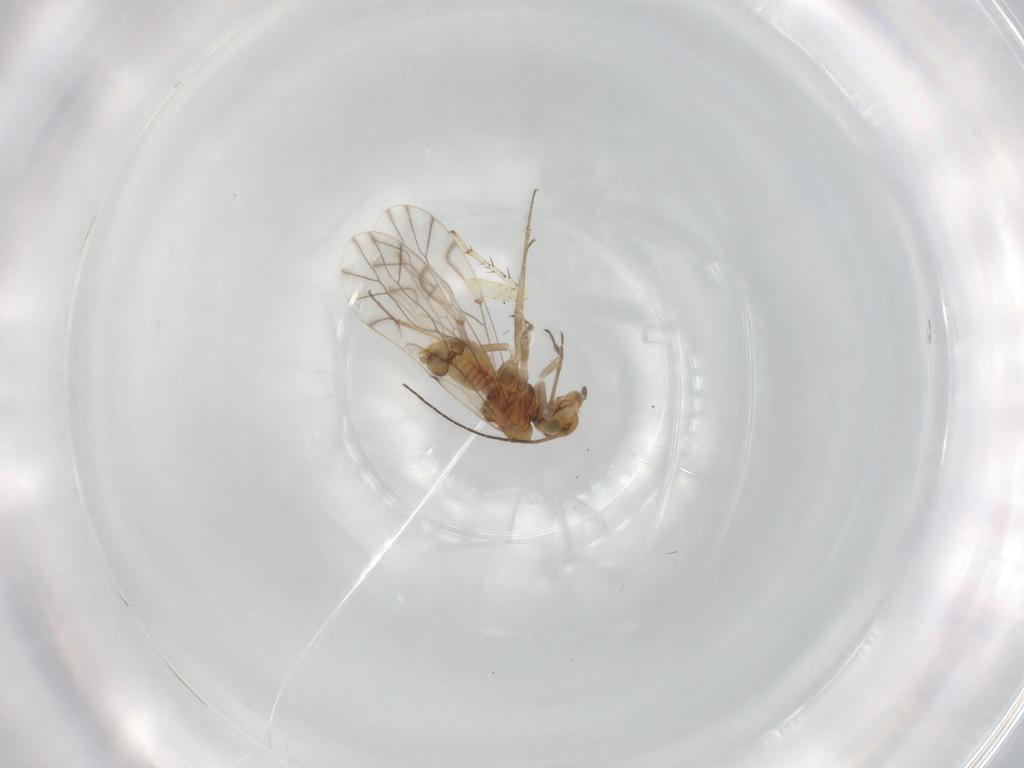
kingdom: Animalia
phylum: Arthropoda
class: Insecta
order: Psocodea
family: Lachesillidae
